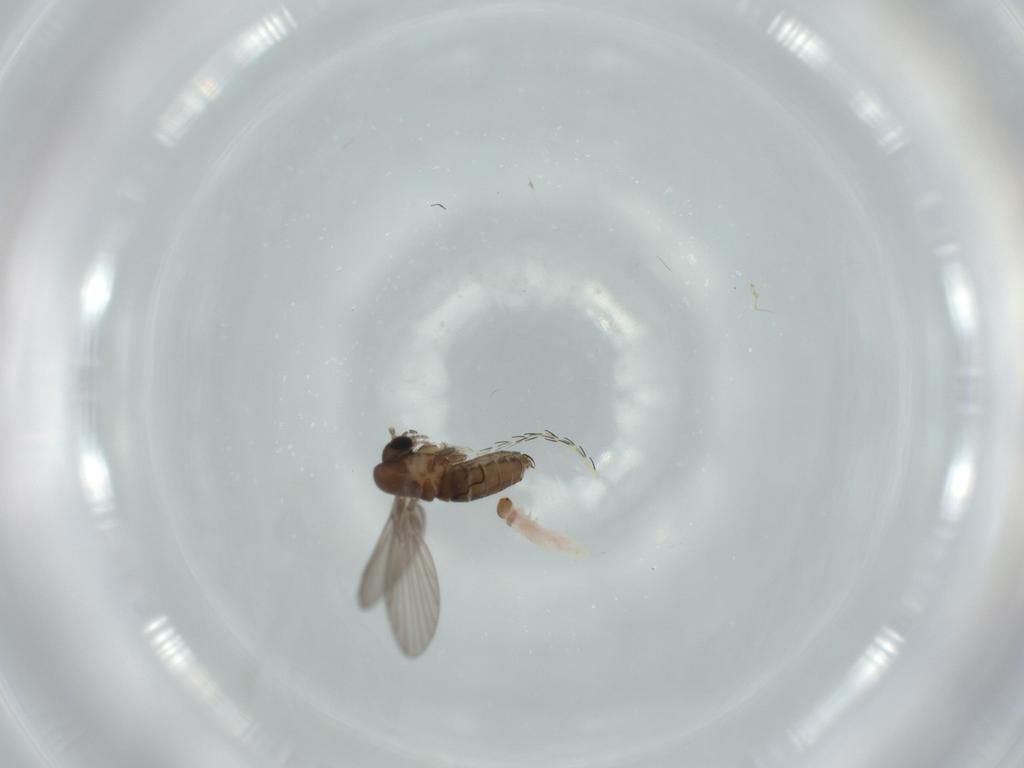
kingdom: Animalia
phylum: Arthropoda
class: Insecta
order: Diptera
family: Psychodidae
